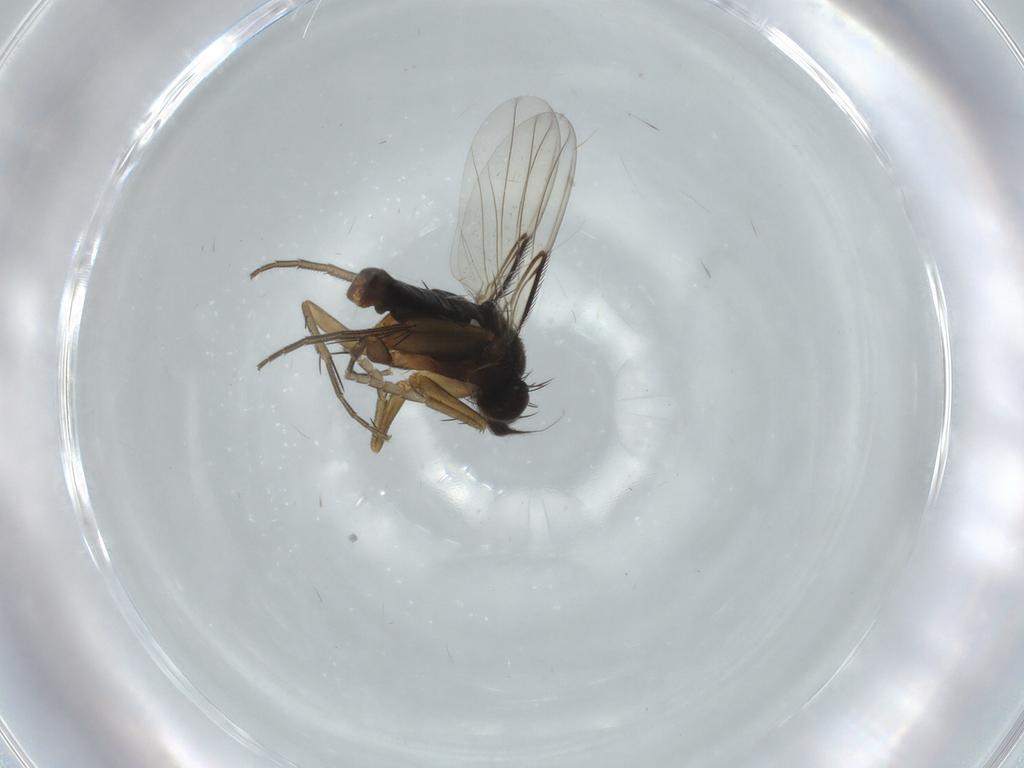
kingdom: Animalia
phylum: Arthropoda
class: Insecta
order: Diptera
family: Phoridae
